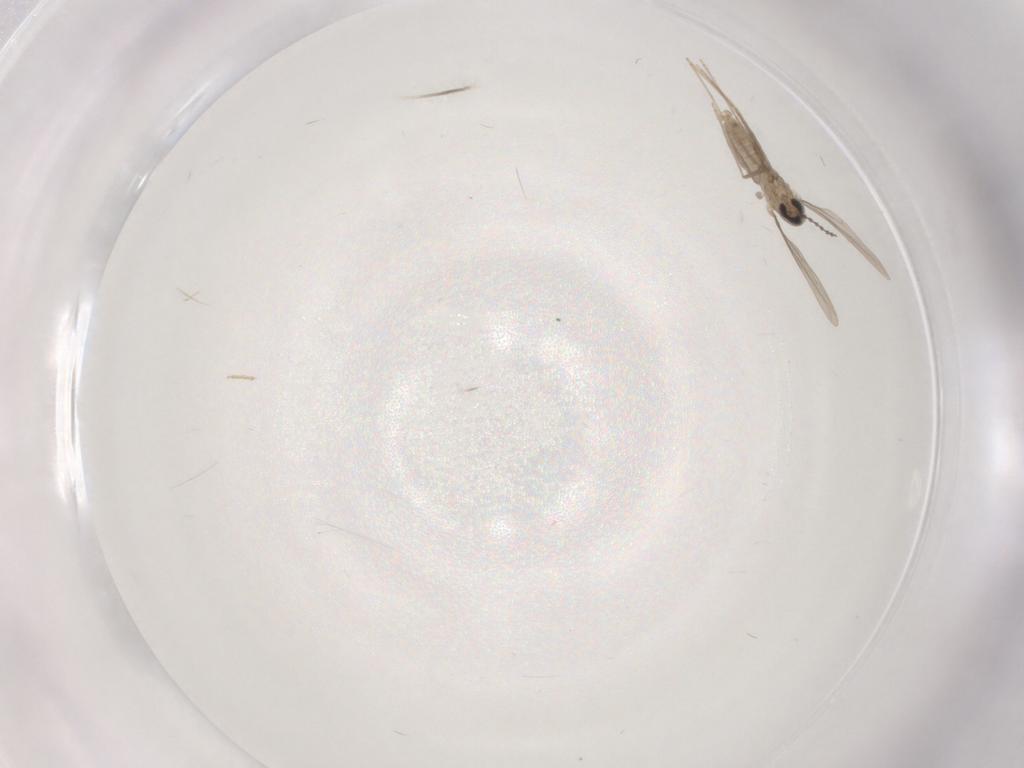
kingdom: Animalia
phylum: Arthropoda
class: Insecta
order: Diptera
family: Cecidomyiidae
